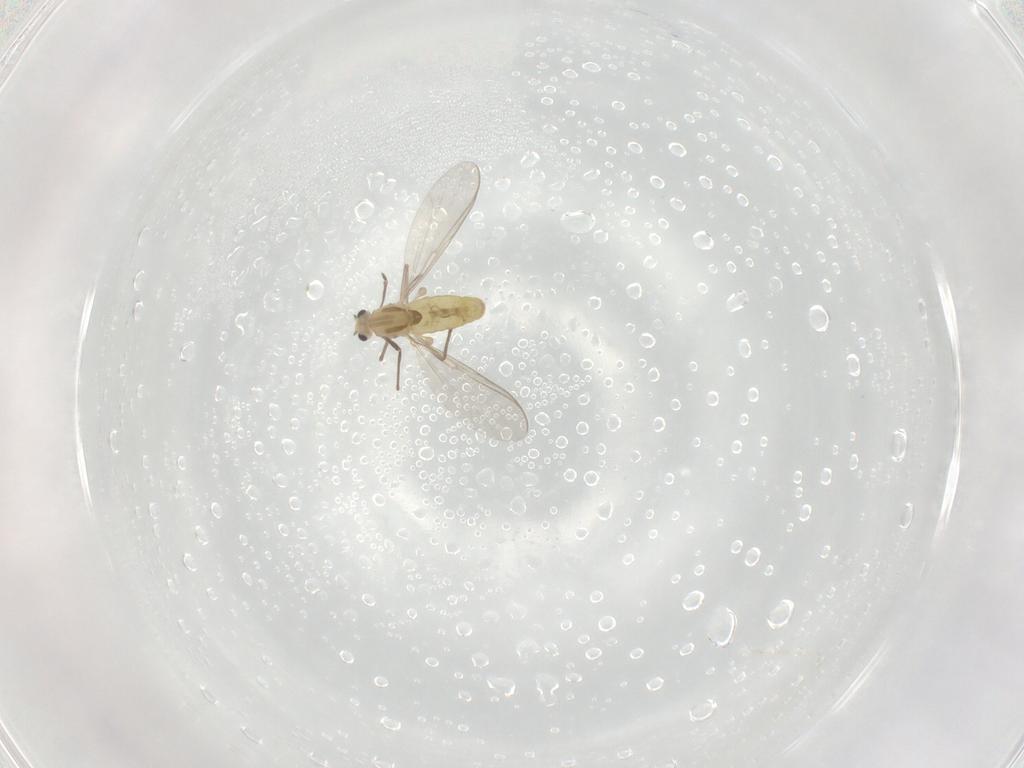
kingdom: Animalia
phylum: Arthropoda
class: Insecta
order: Diptera
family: Chironomidae
